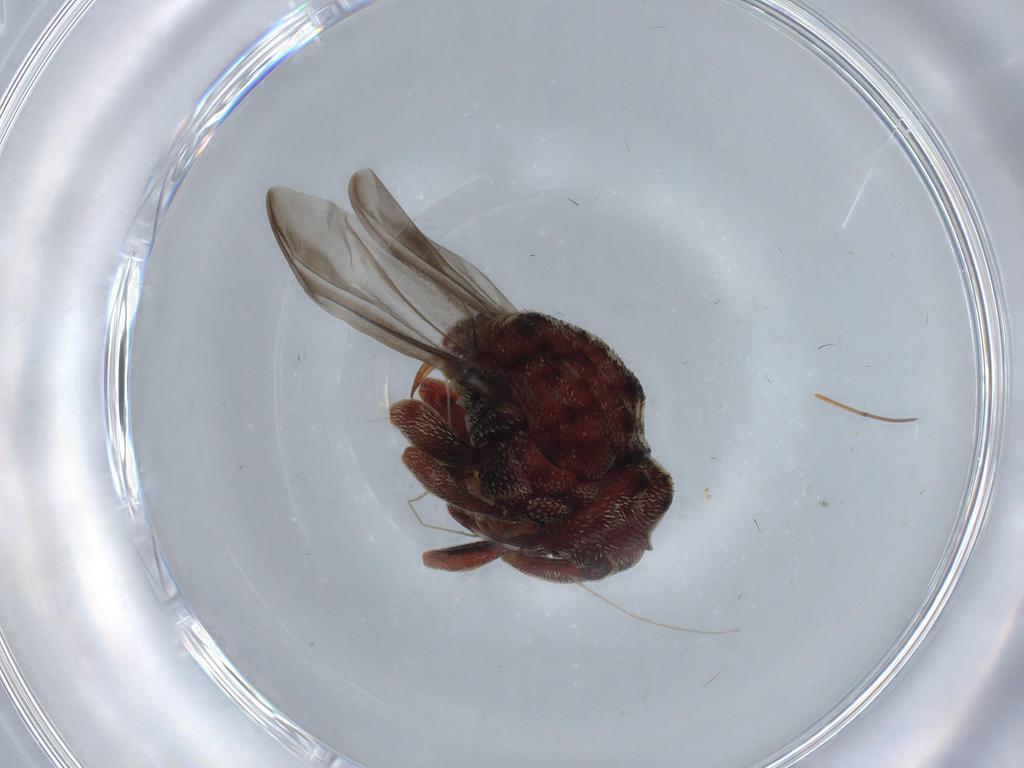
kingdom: Animalia
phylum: Arthropoda
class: Insecta
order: Coleoptera
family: Curculionidae
